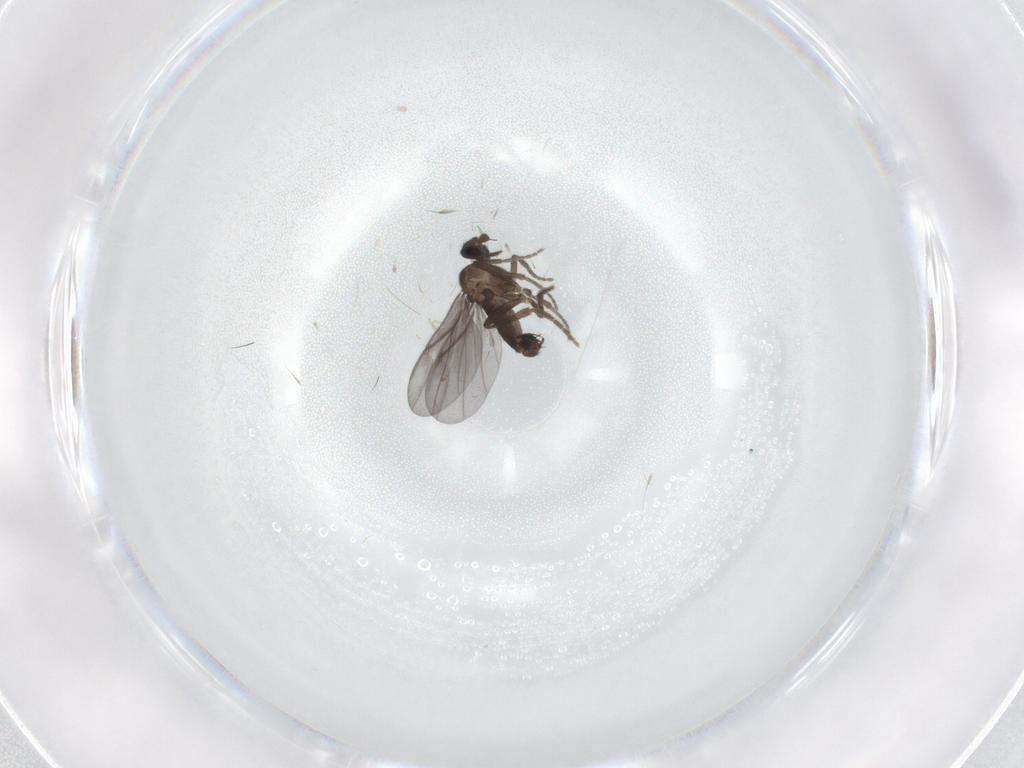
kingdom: Animalia
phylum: Arthropoda
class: Insecta
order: Diptera
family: Phoridae
